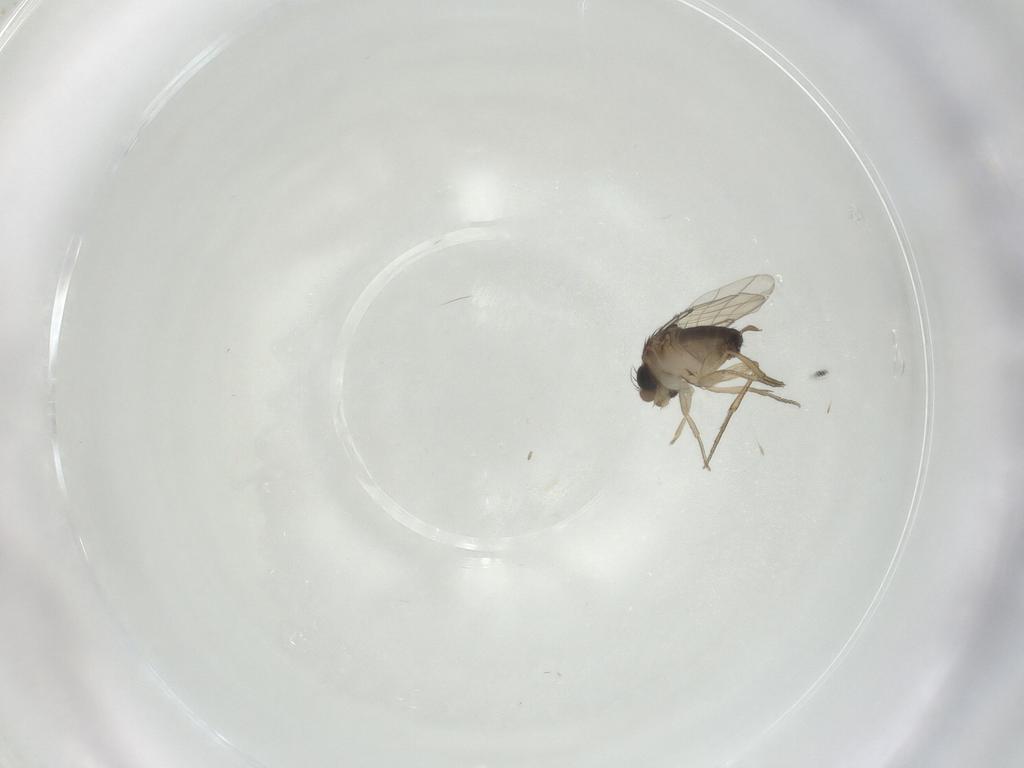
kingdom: Animalia
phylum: Arthropoda
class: Insecta
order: Diptera
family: Phoridae
